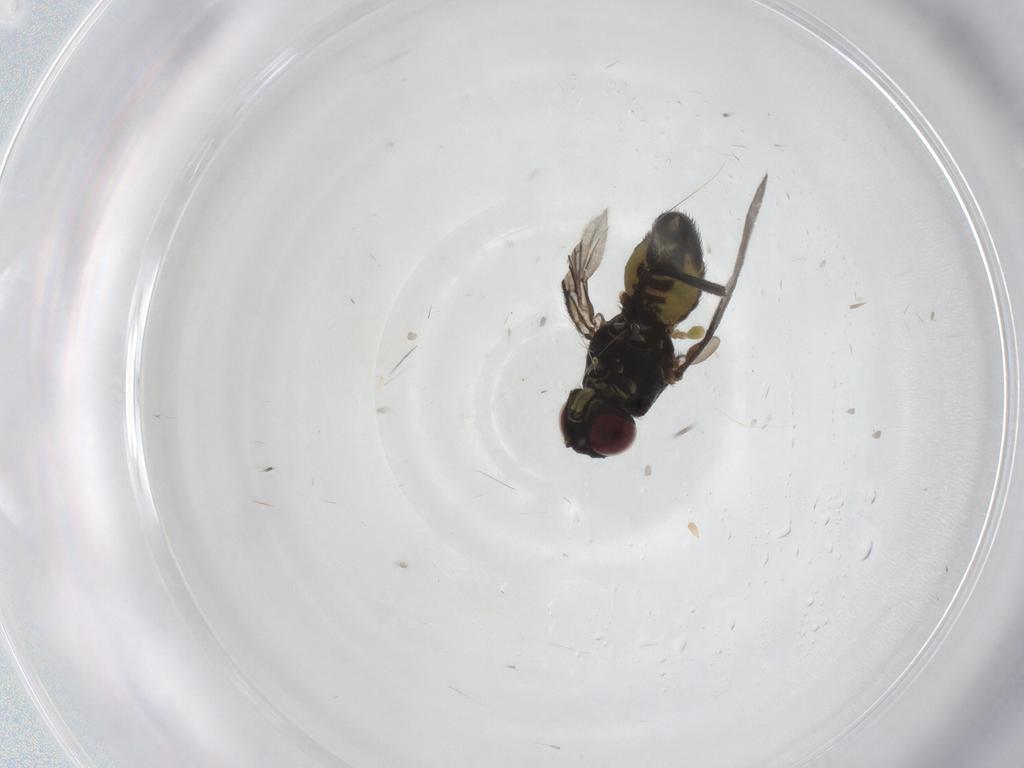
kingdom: Animalia
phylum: Arthropoda
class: Insecta
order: Diptera
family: Agromyzidae
